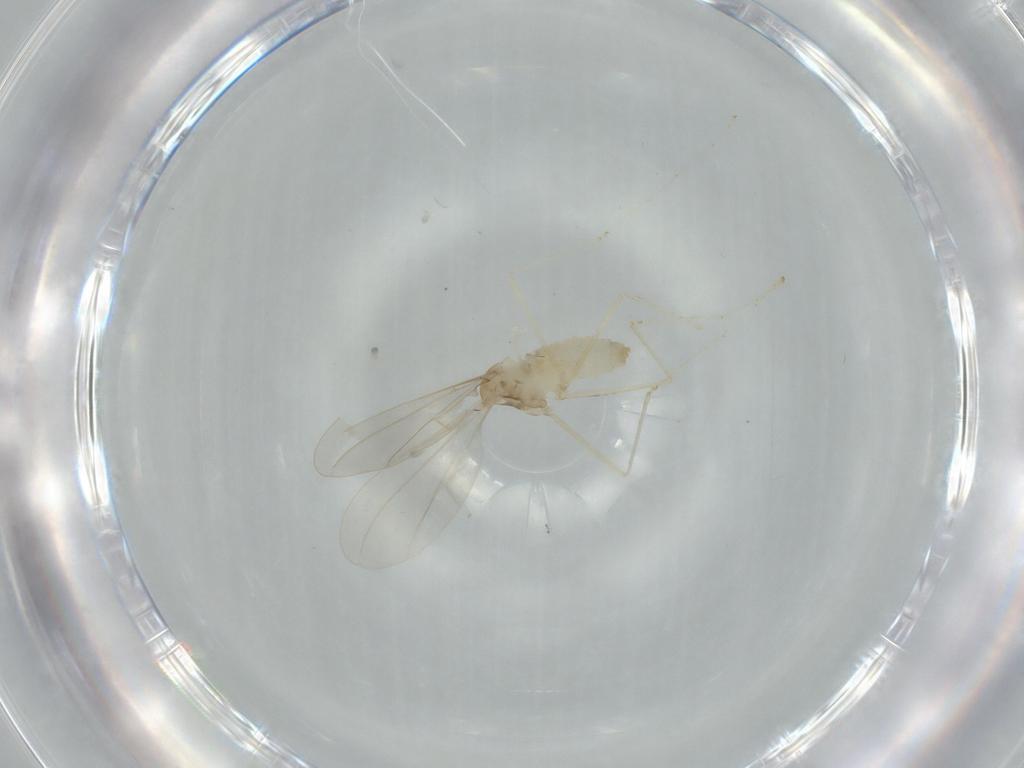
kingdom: Animalia
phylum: Arthropoda
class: Insecta
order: Diptera
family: Cecidomyiidae
